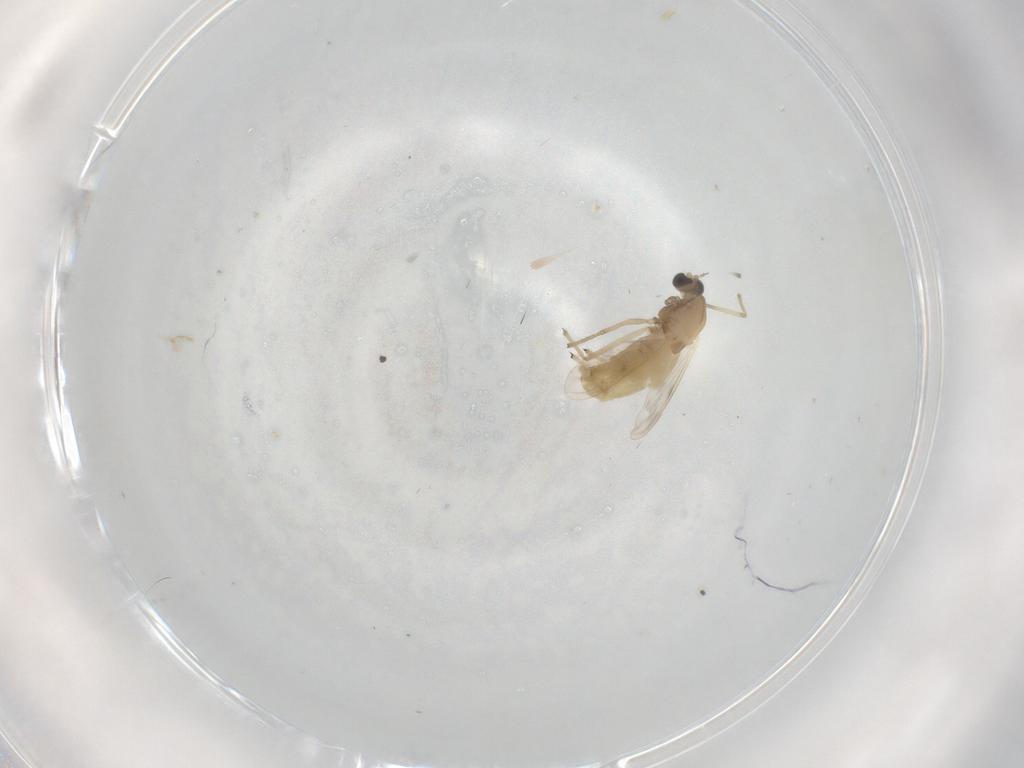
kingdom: Animalia
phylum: Arthropoda
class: Insecta
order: Diptera
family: Chironomidae
